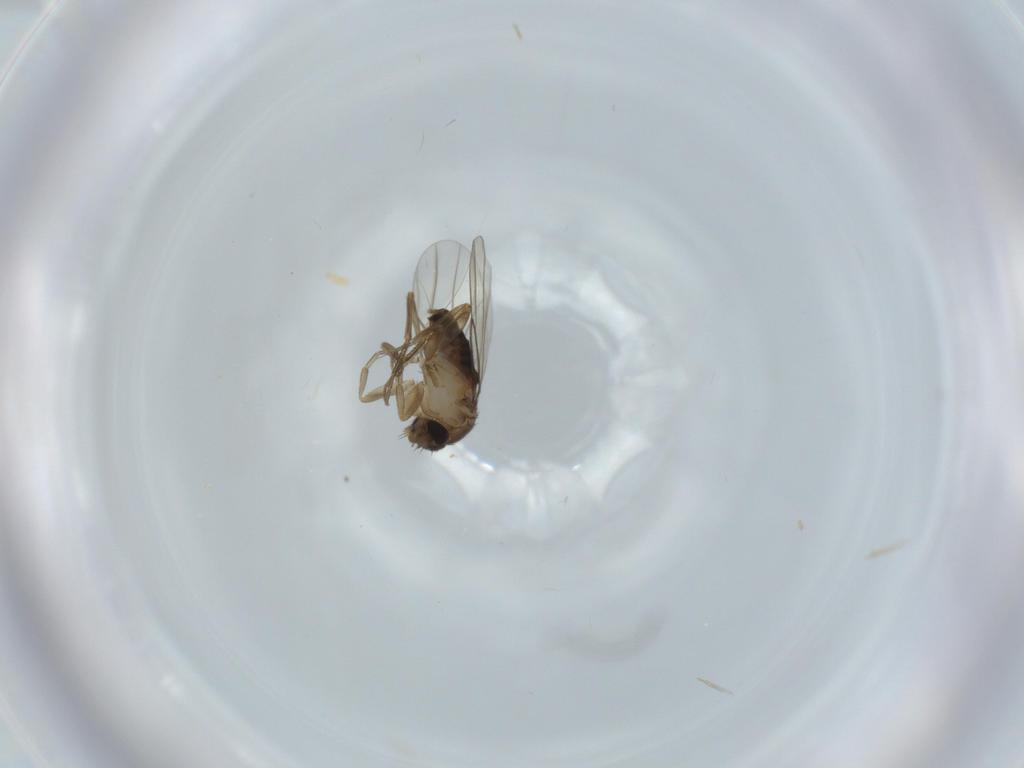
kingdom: Animalia
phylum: Arthropoda
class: Insecta
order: Diptera
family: Phoridae
